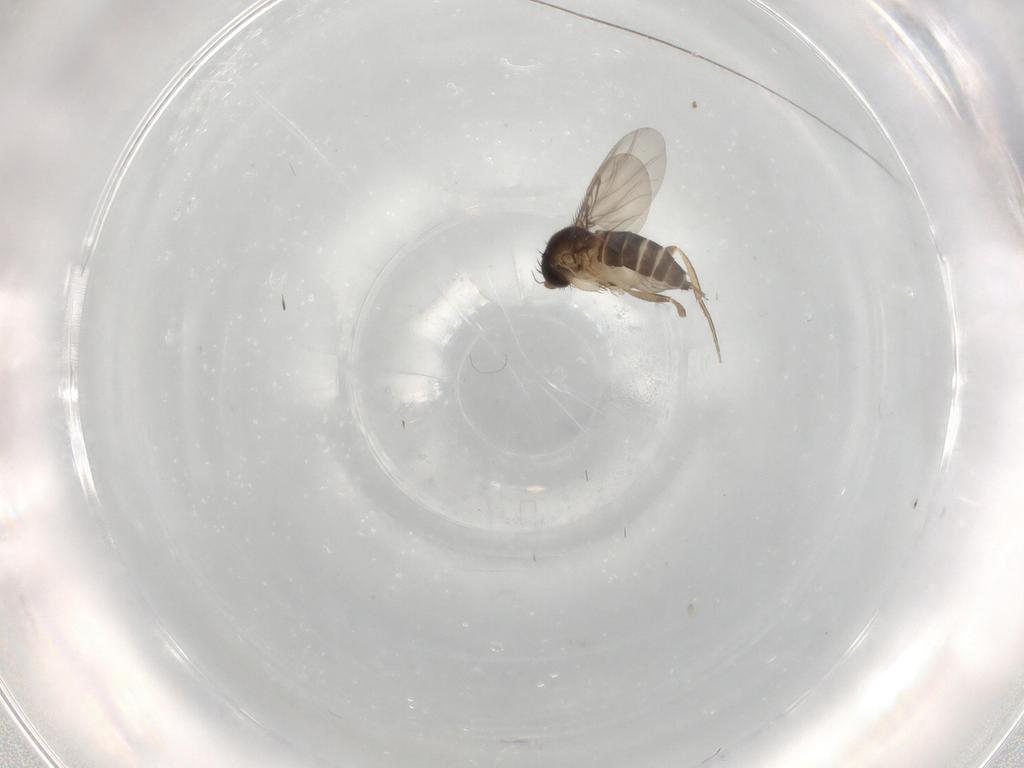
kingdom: Animalia
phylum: Arthropoda
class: Insecta
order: Diptera
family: Phoridae
